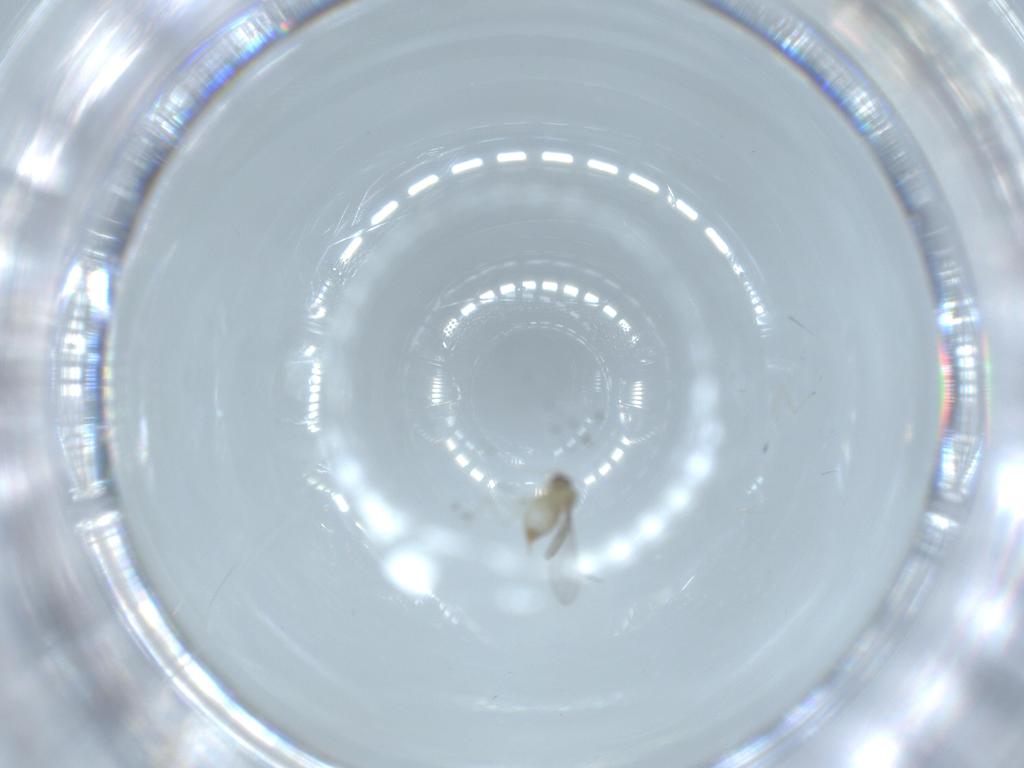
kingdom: Animalia
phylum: Arthropoda
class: Insecta
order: Diptera
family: Cecidomyiidae
